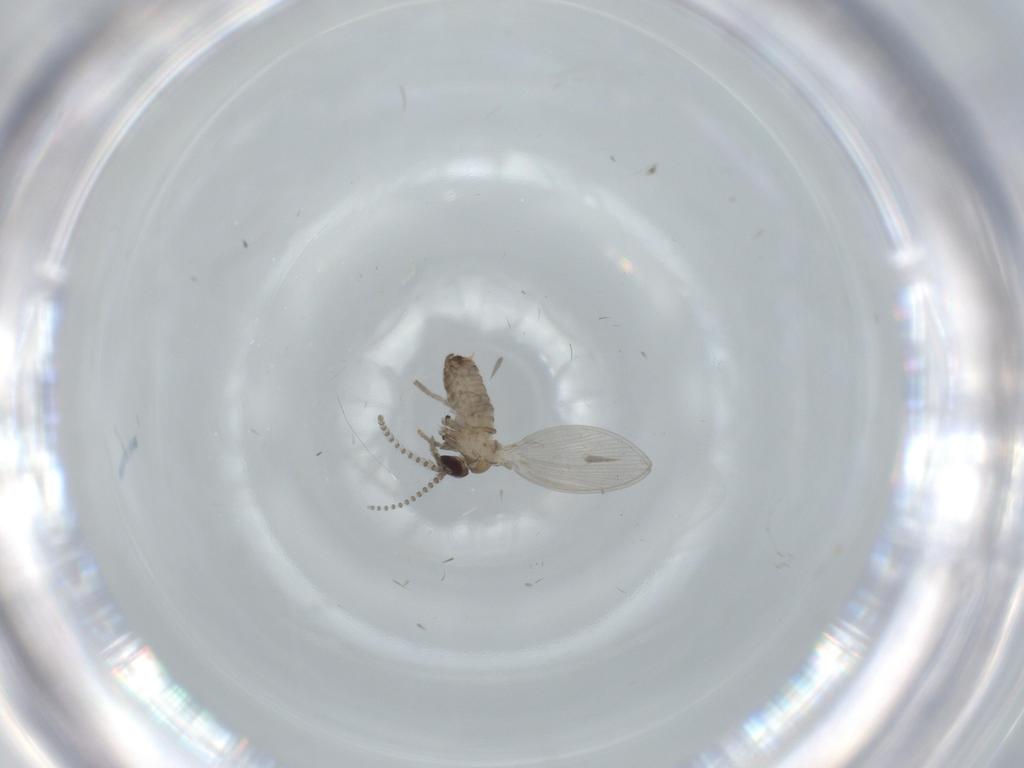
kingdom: Animalia
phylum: Arthropoda
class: Insecta
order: Diptera
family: Psychodidae
